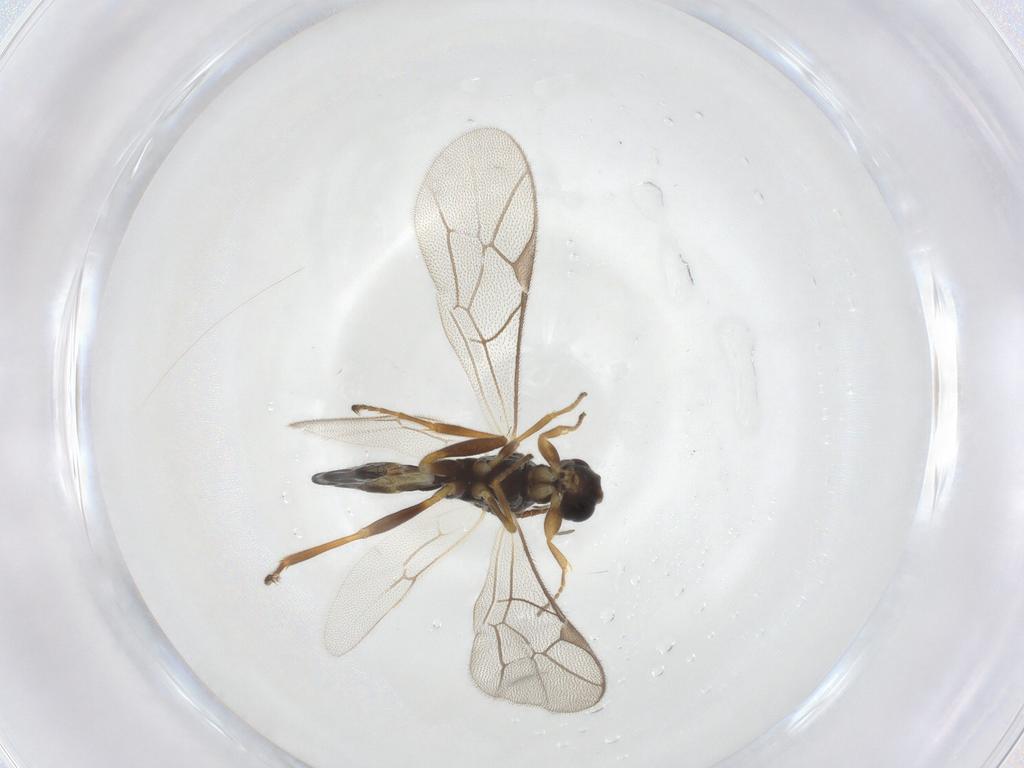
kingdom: Animalia
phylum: Arthropoda
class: Insecta
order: Hymenoptera
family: Ichneumonidae
